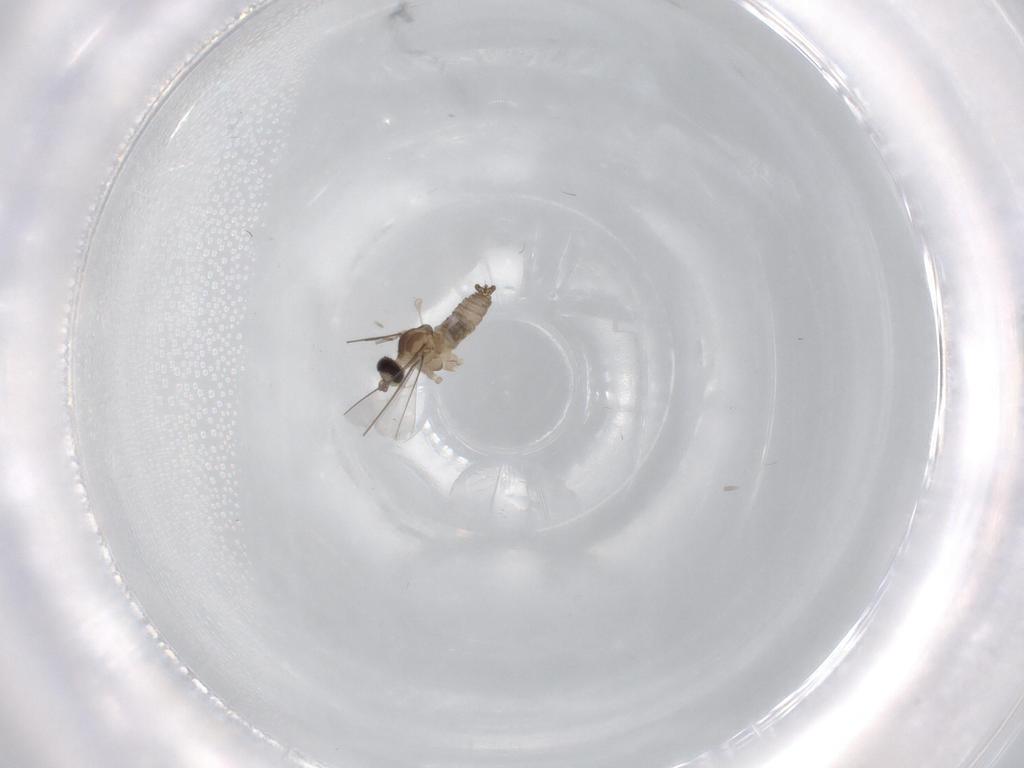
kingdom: Animalia
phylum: Arthropoda
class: Insecta
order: Diptera
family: Cecidomyiidae
